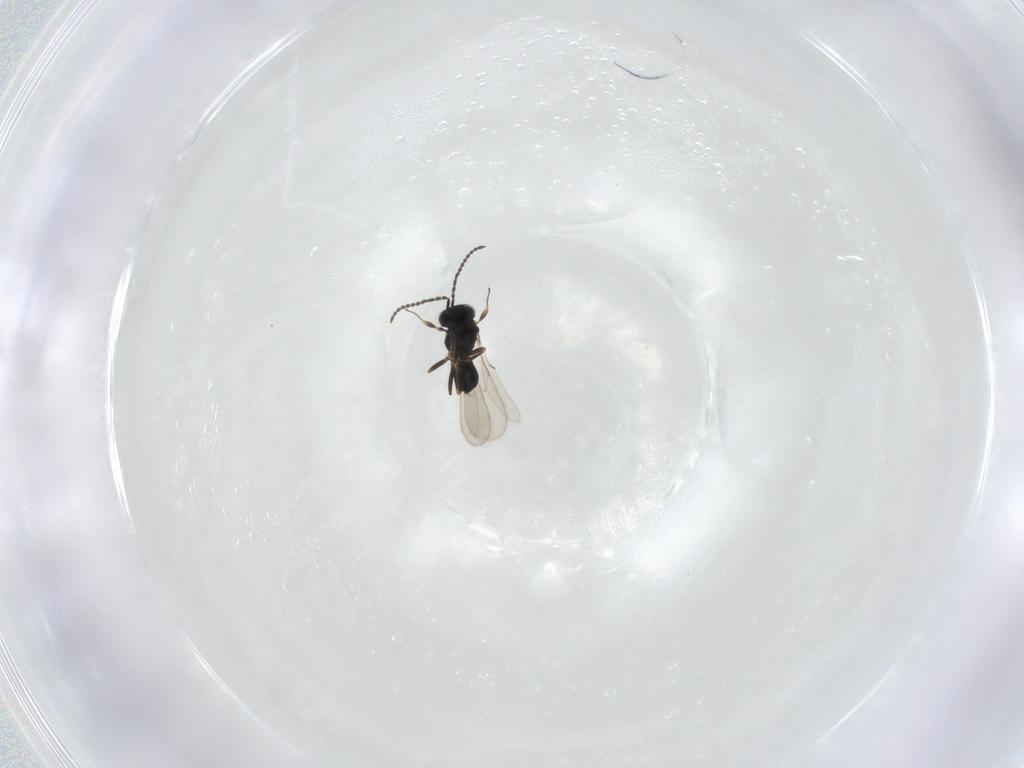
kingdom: Animalia
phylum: Arthropoda
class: Insecta
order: Hymenoptera
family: Scelionidae
